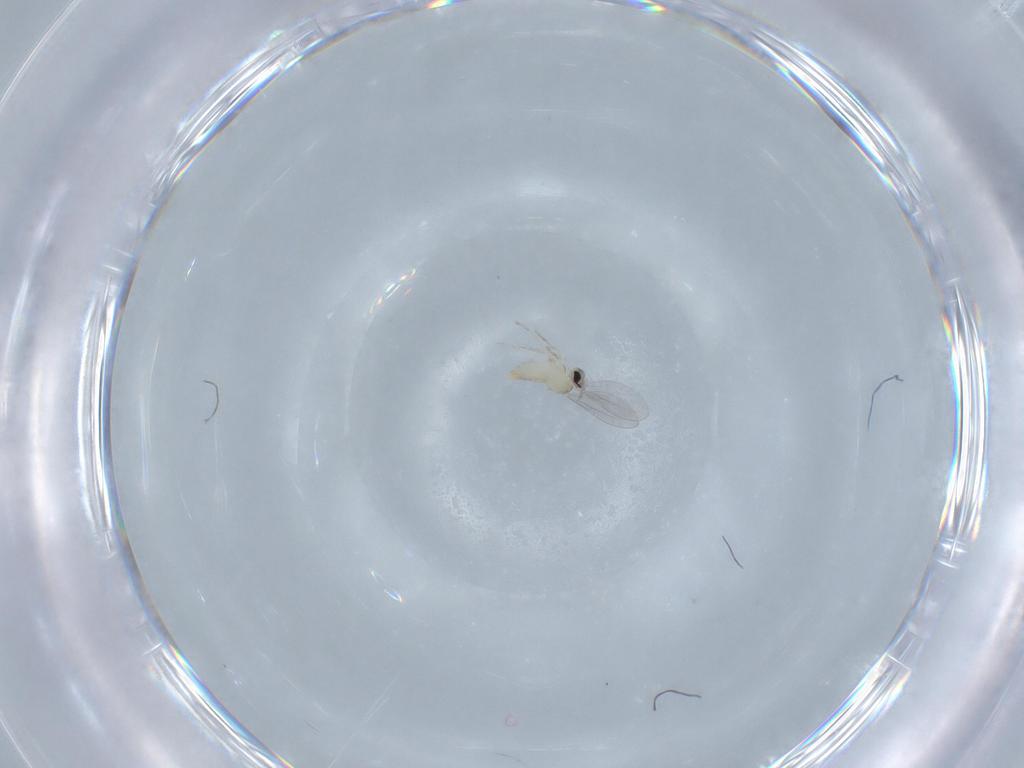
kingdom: Animalia
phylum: Arthropoda
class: Insecta
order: Diptera
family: Cecidomyiidae
